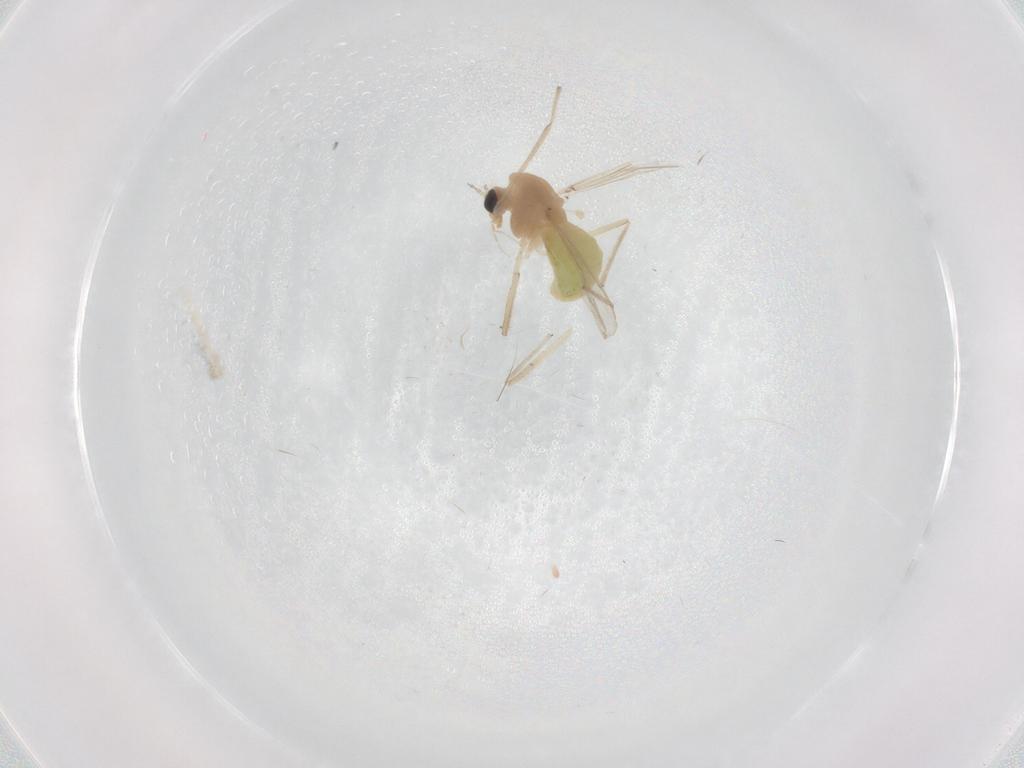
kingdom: Animalia
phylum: Arthropoda
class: Insecta
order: Diptera
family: Chironomidae
